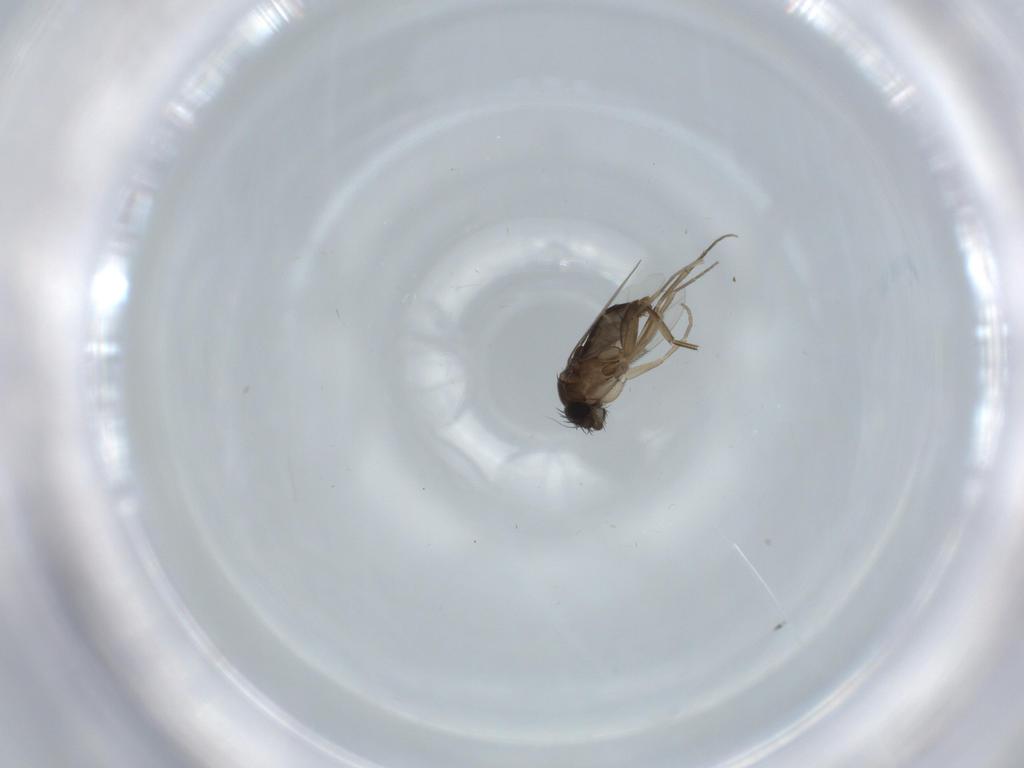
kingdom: Animalia
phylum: Arthropoda
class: Insecta
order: Diptera
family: Phoridae
